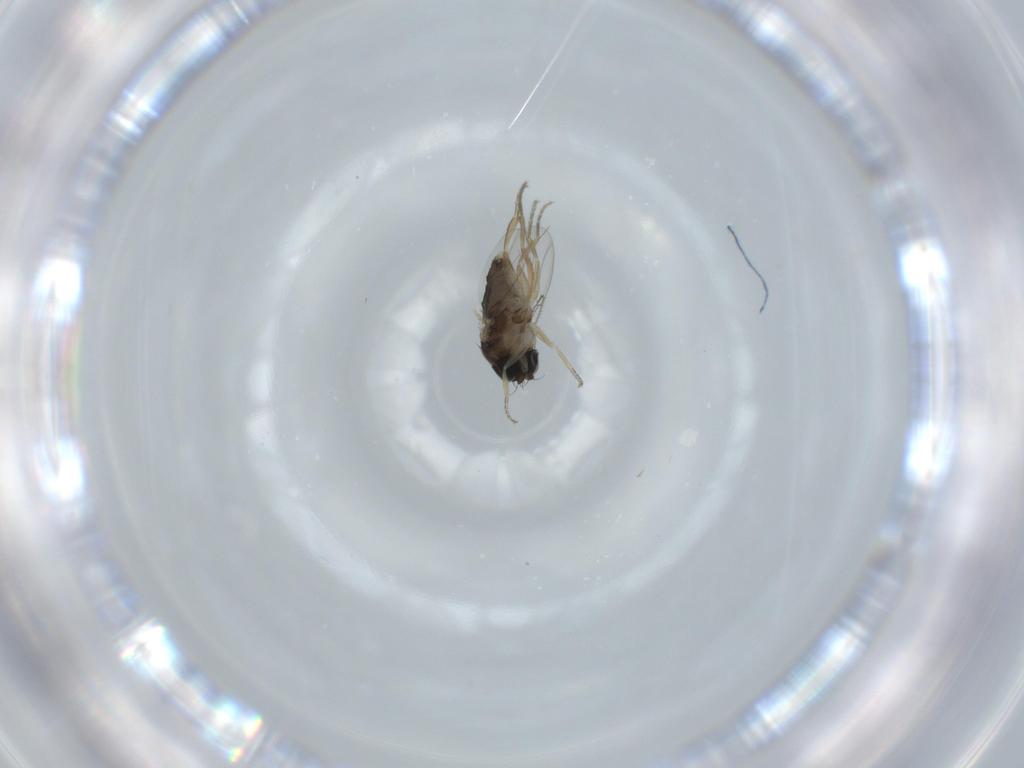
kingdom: Animalia
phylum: Arthropoda
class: Insecta
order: Diptera
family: Phoridae
